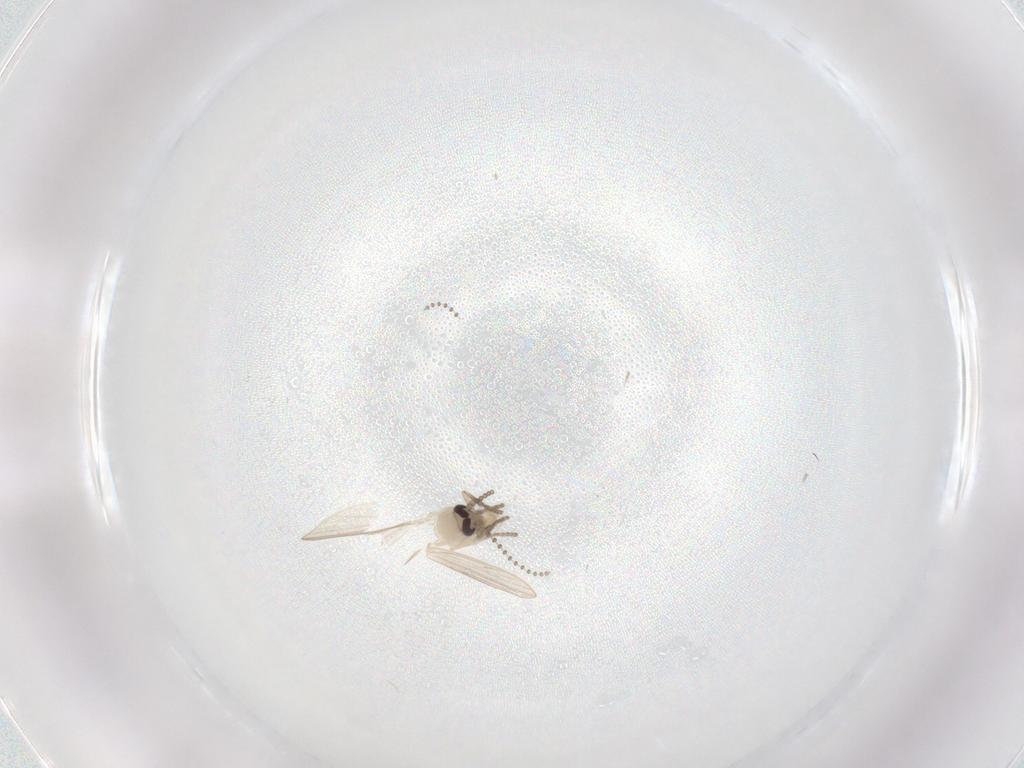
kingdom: Animalia
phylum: Arthropoda
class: Insecta
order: Diptera
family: Psychodidae
